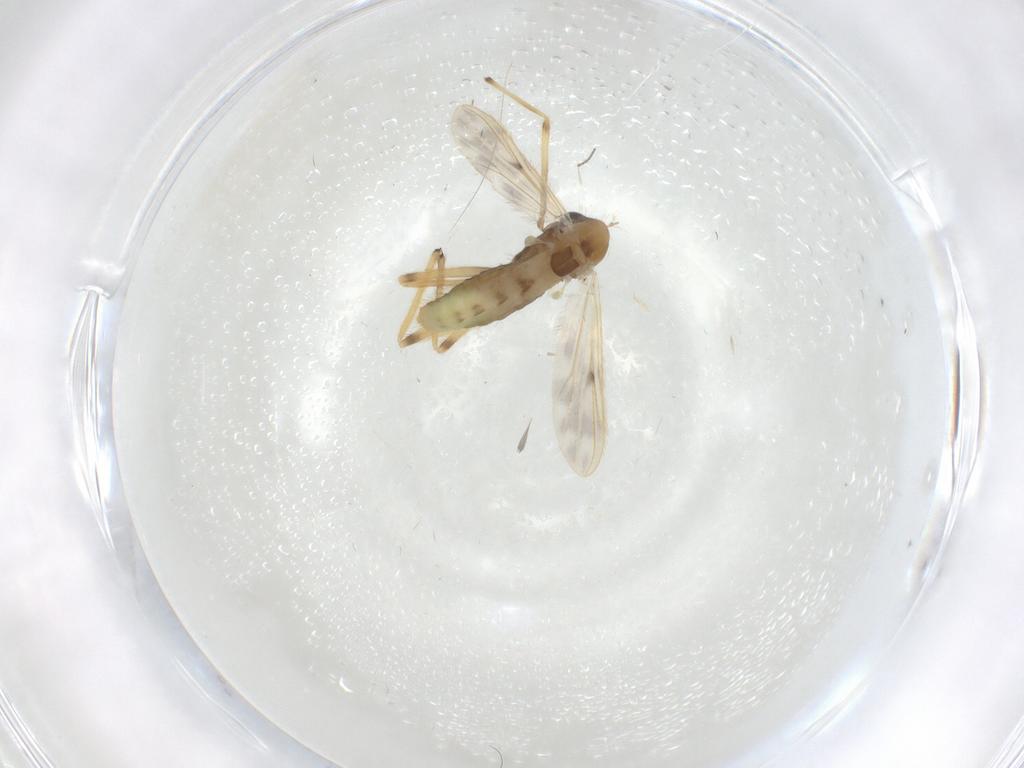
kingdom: Animalia
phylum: Arthropoda
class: Insecta
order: Diptera
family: Chironomidae
